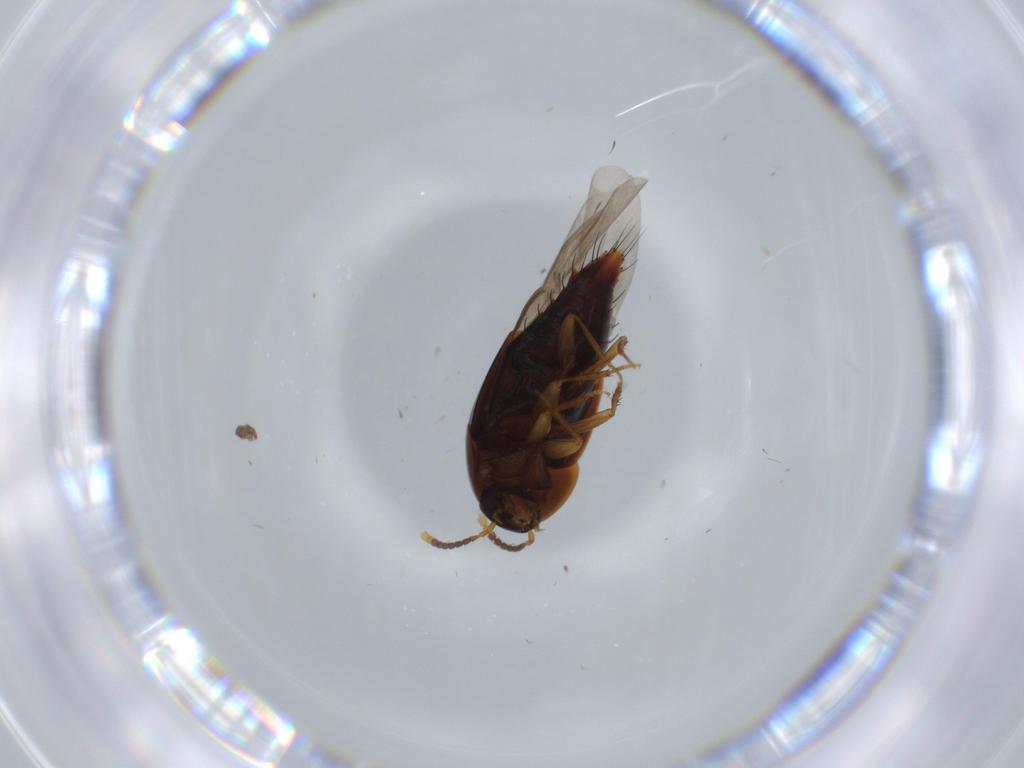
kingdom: Animalia
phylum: Arthropoda
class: Insecta
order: Coleoptera
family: Staphylinidae
